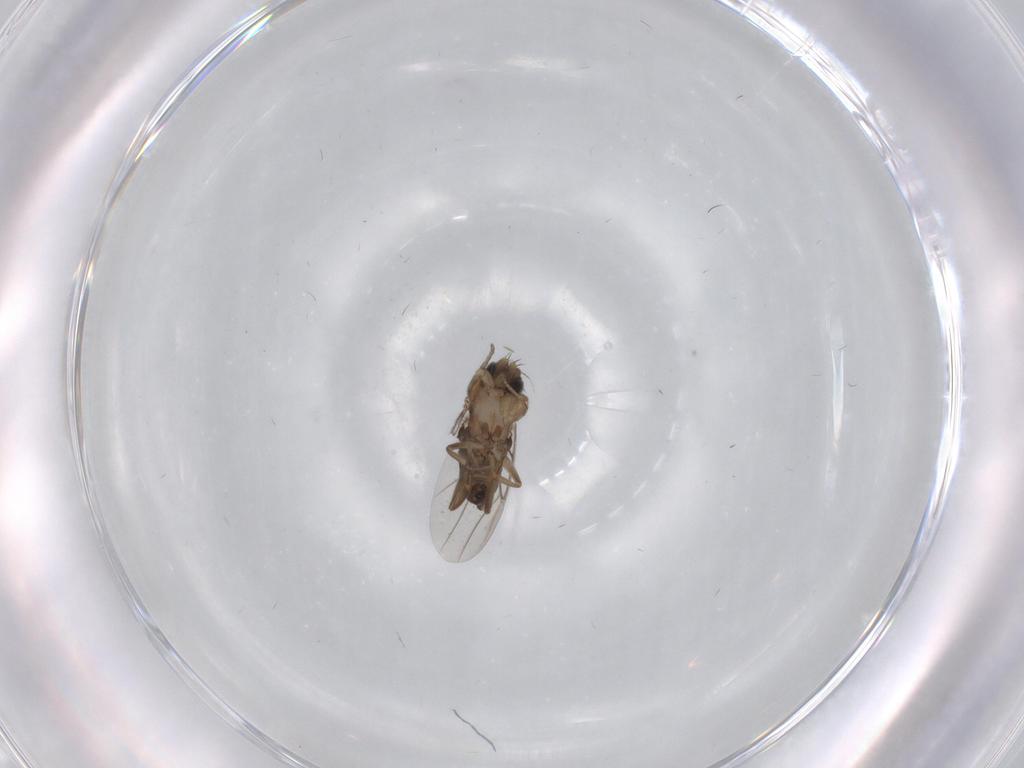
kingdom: Animalia
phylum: Arthropoda
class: Insecta
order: Diptera
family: Phoridae
